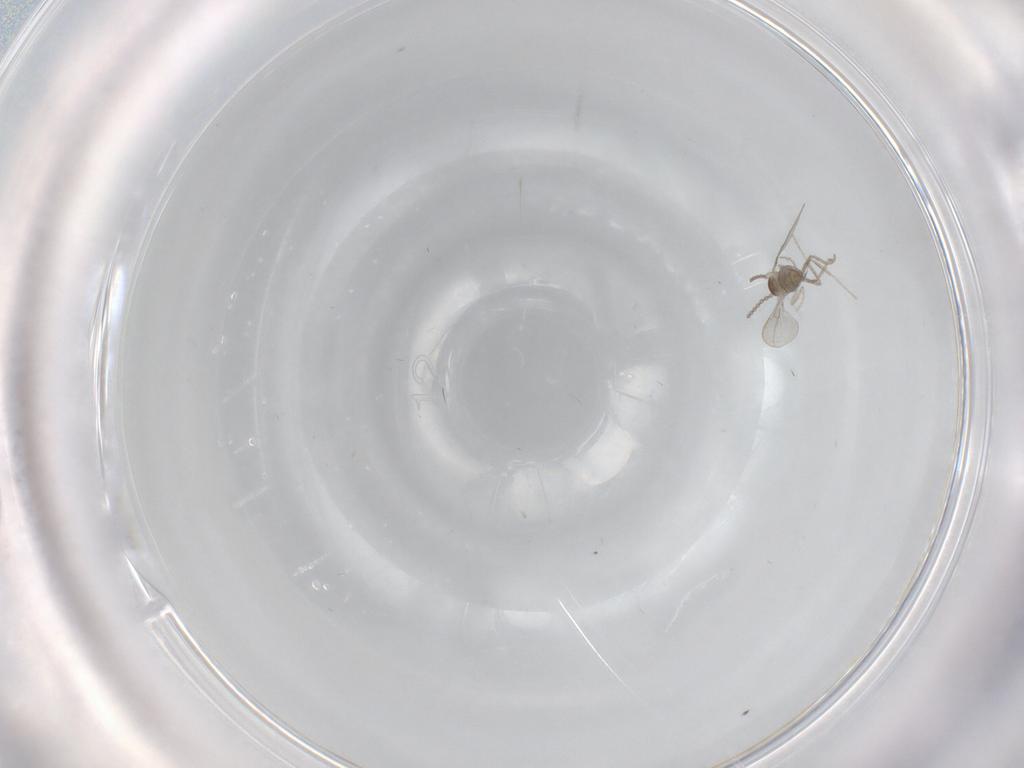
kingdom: Animalia
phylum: Arthropoda
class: Insecta
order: Diptera
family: Cecidomyiidae
